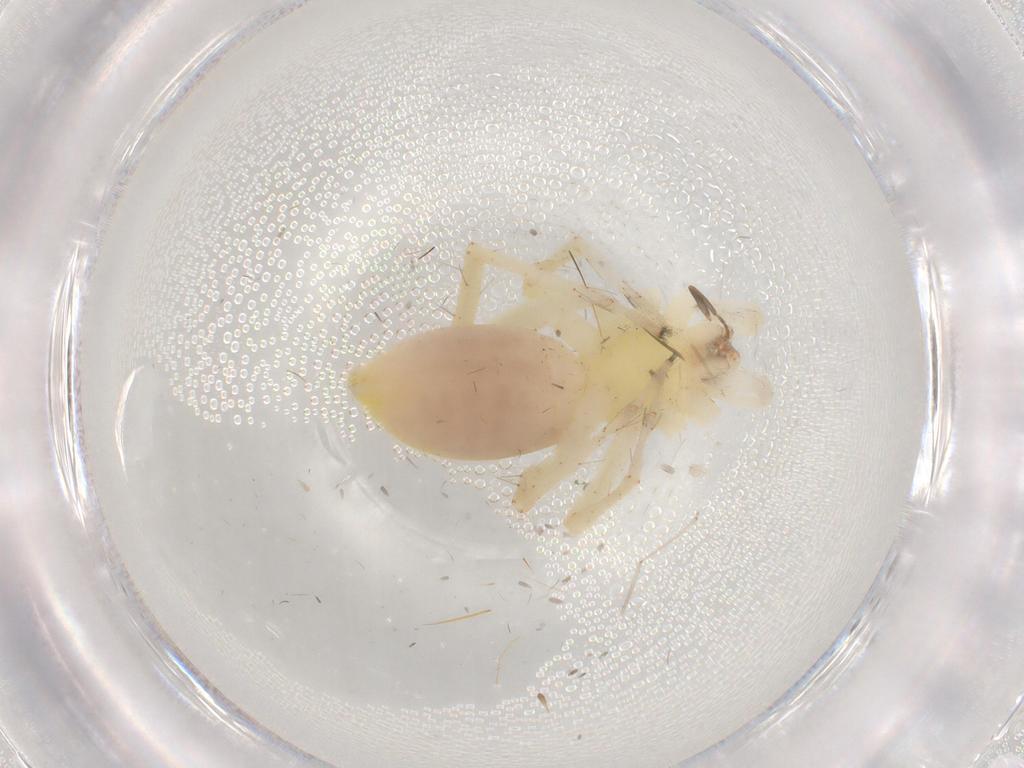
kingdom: Animalia
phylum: Arthropoda
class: Arachnida
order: Araneae
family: Anyphaenidae
